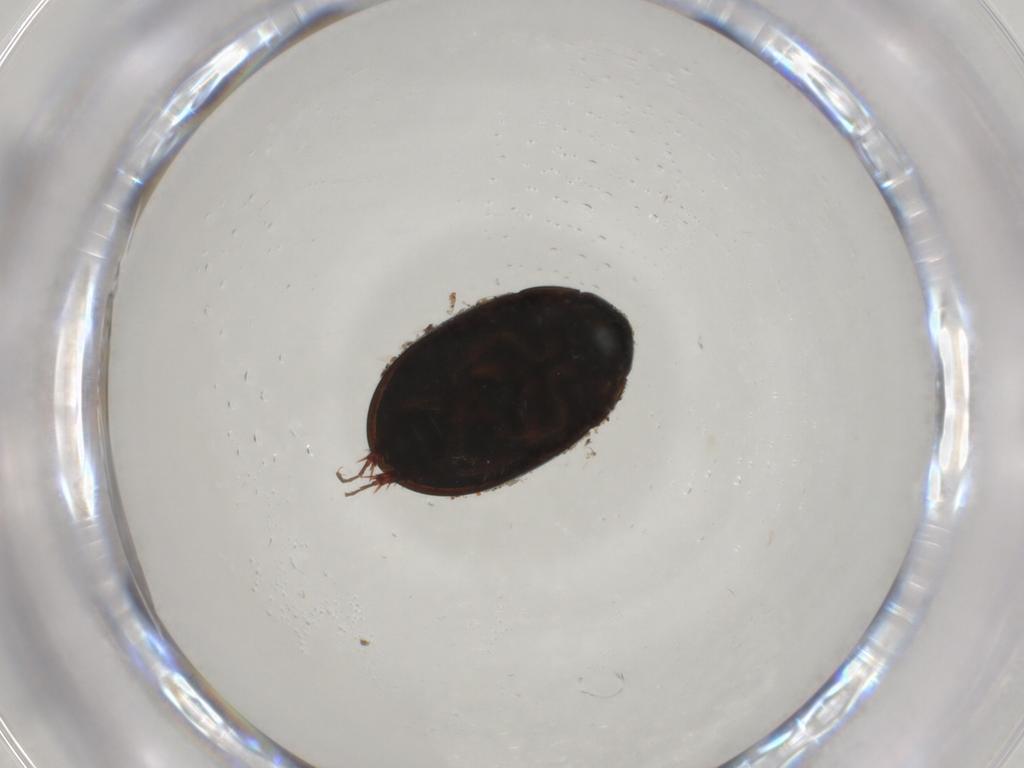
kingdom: Animalia
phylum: Arthropoda
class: Insecta
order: Coleoptera
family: Hydrophilidae
